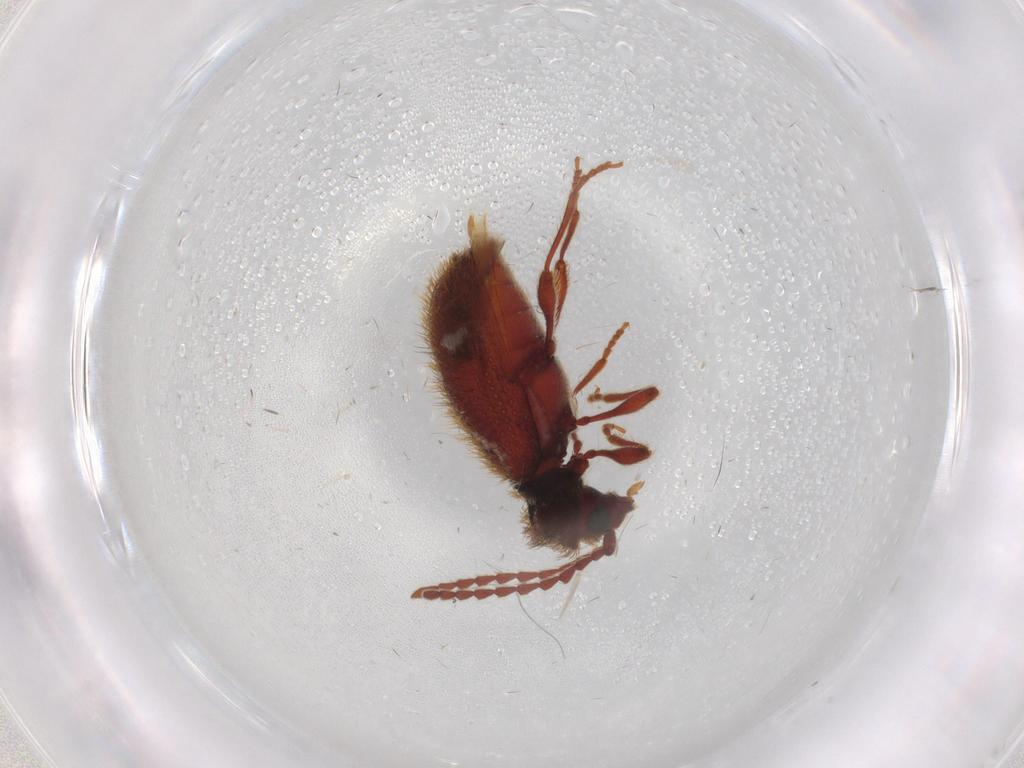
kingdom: Animalia
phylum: Arthropoda
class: Insecta
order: Coleoptera
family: Ptinidae
